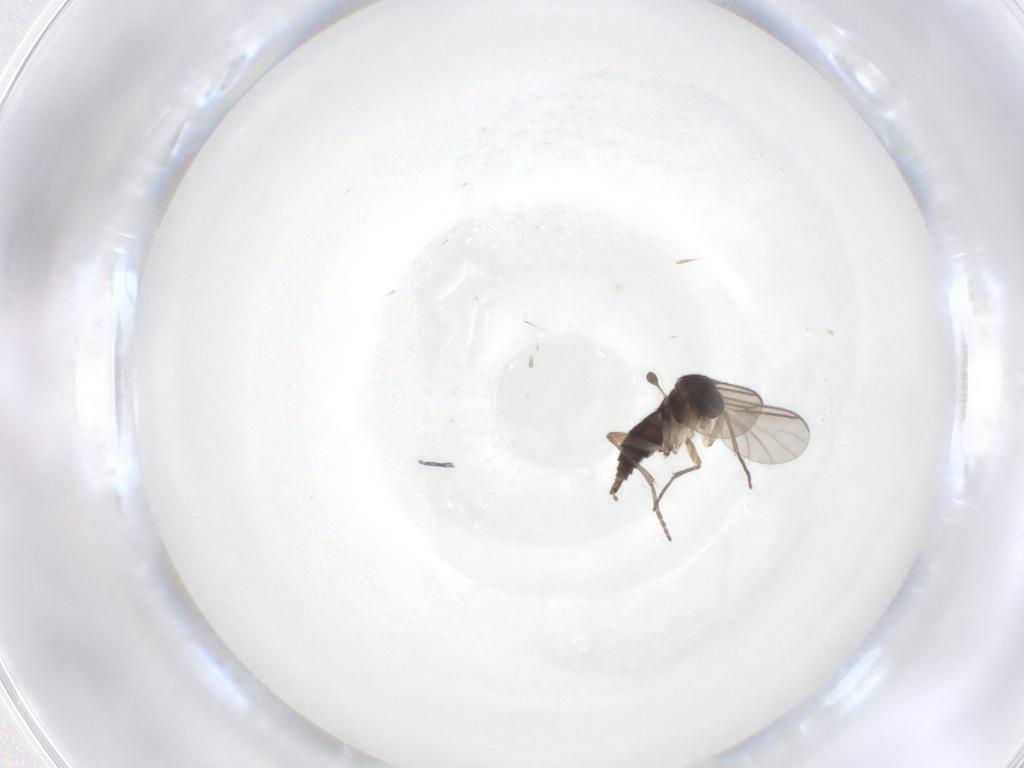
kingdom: Animalia
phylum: Arthropoda
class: Insecta
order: Diptera
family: Sciaridae
